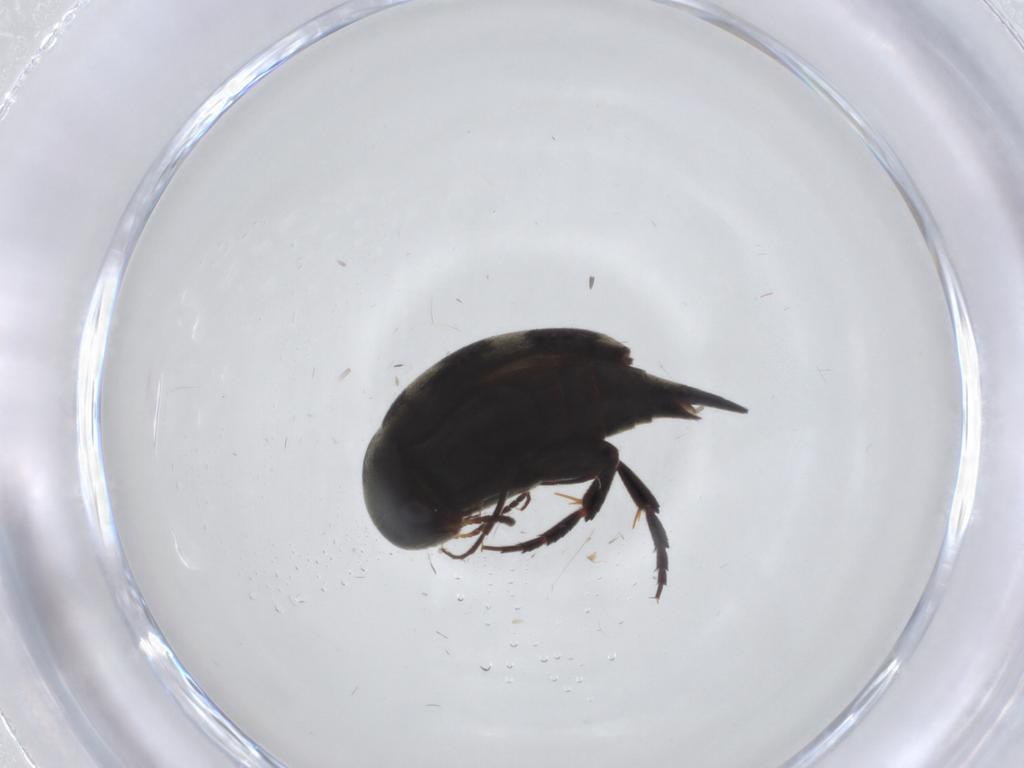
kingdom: Animalia
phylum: Arthropoda
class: Insecta
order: Coleoptera
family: Mordellidae
